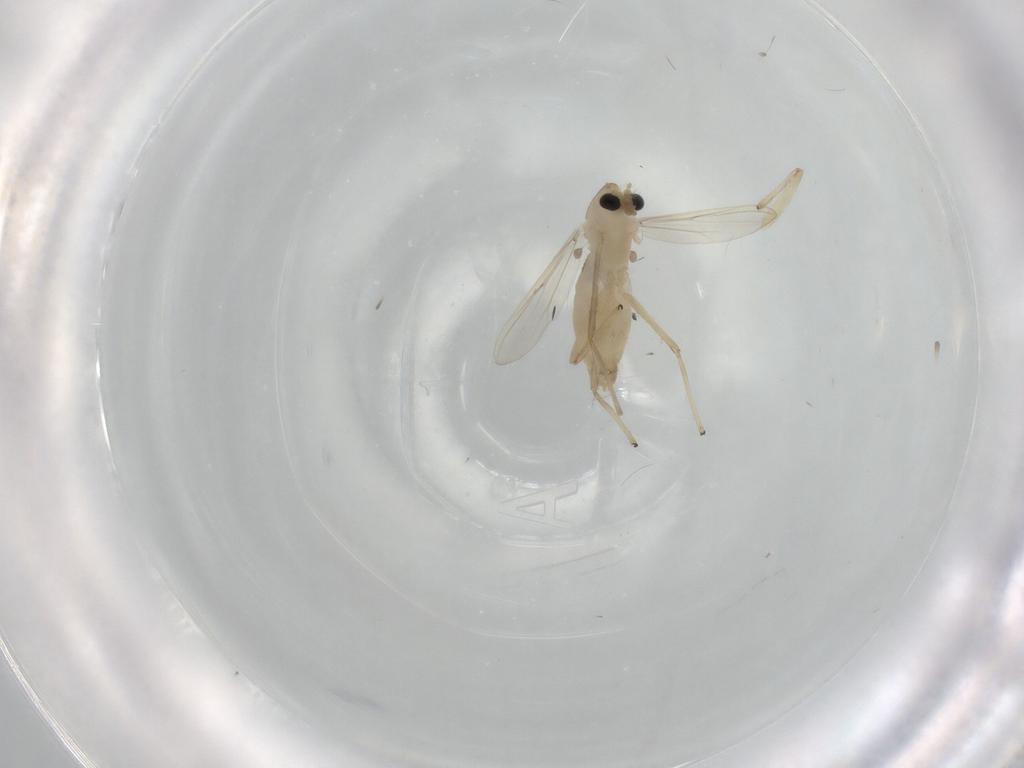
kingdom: Animalia
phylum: Arthropoda
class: Insecta
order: Diptera
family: Chironomidae
